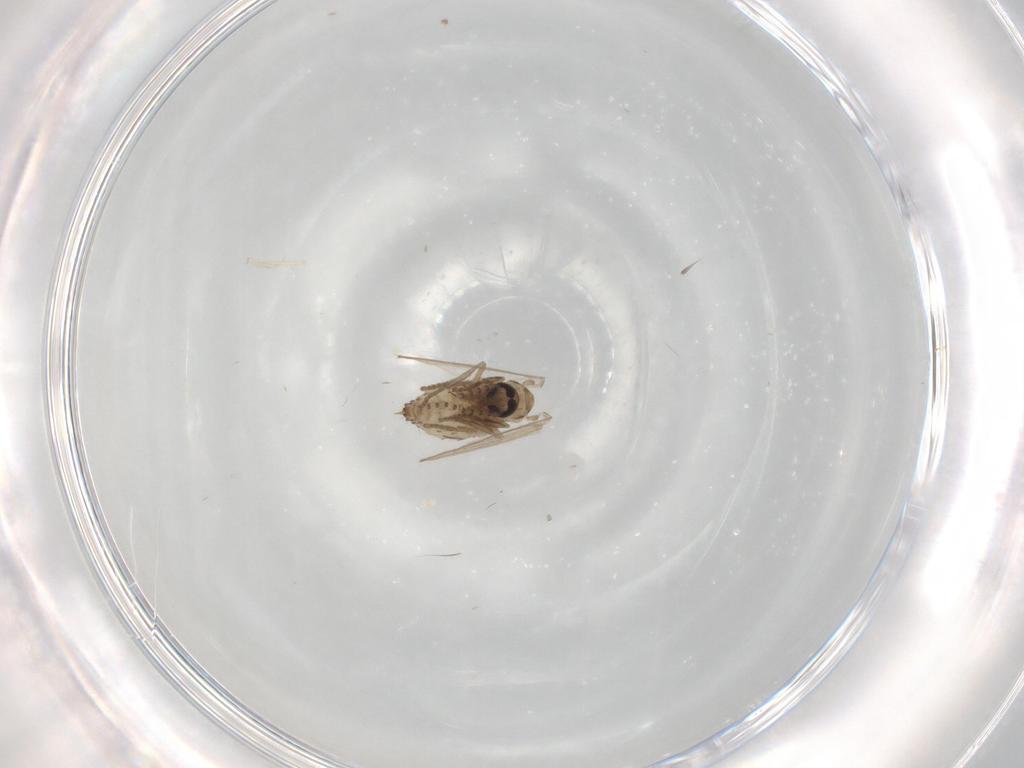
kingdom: Animalia
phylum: Arthropoda
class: Insecta
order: Diptera
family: Psychodidae
